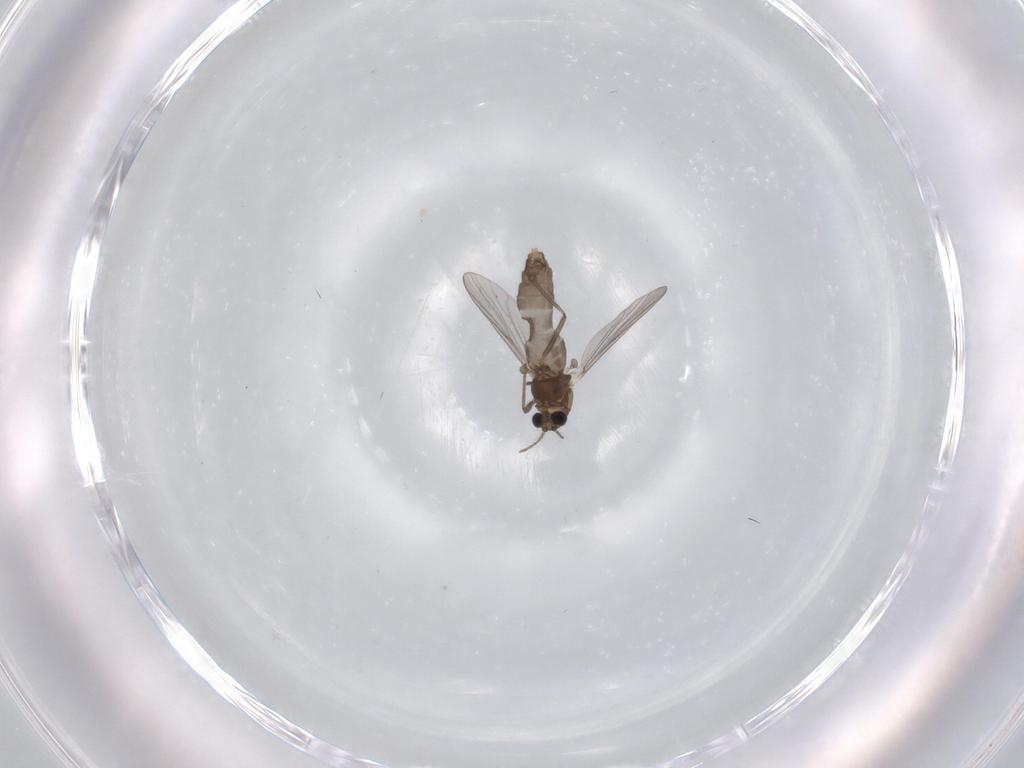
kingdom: Animalia
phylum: Arthropoda
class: Insecta
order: Diptera
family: Chironomidae
